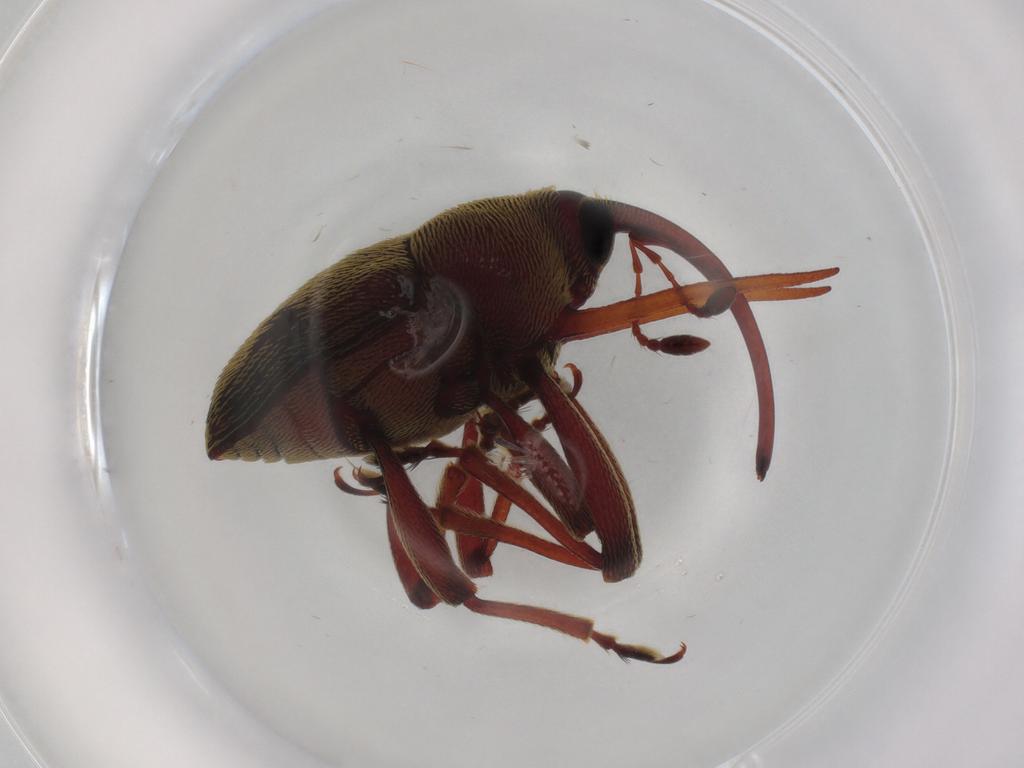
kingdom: Animalia
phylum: Arthropoda
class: Insecta
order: Coleoptera
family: Curculionidae
